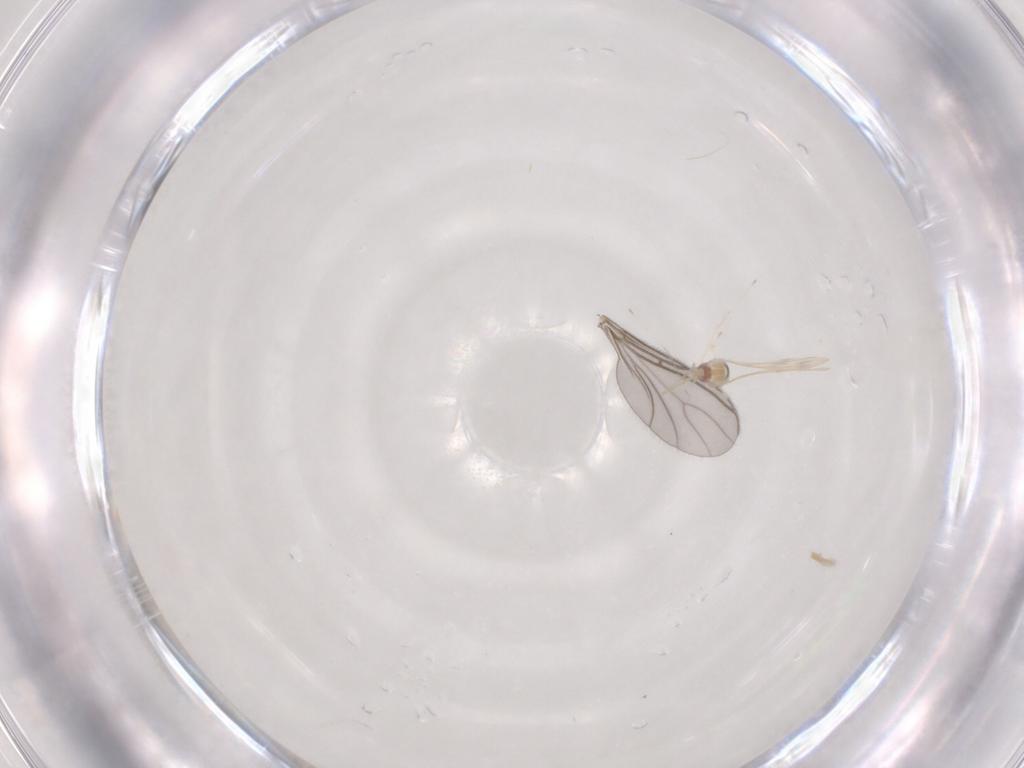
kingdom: Animalia
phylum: Arthropoda
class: Insecta
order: Diptera
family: Cecidomyiidae
